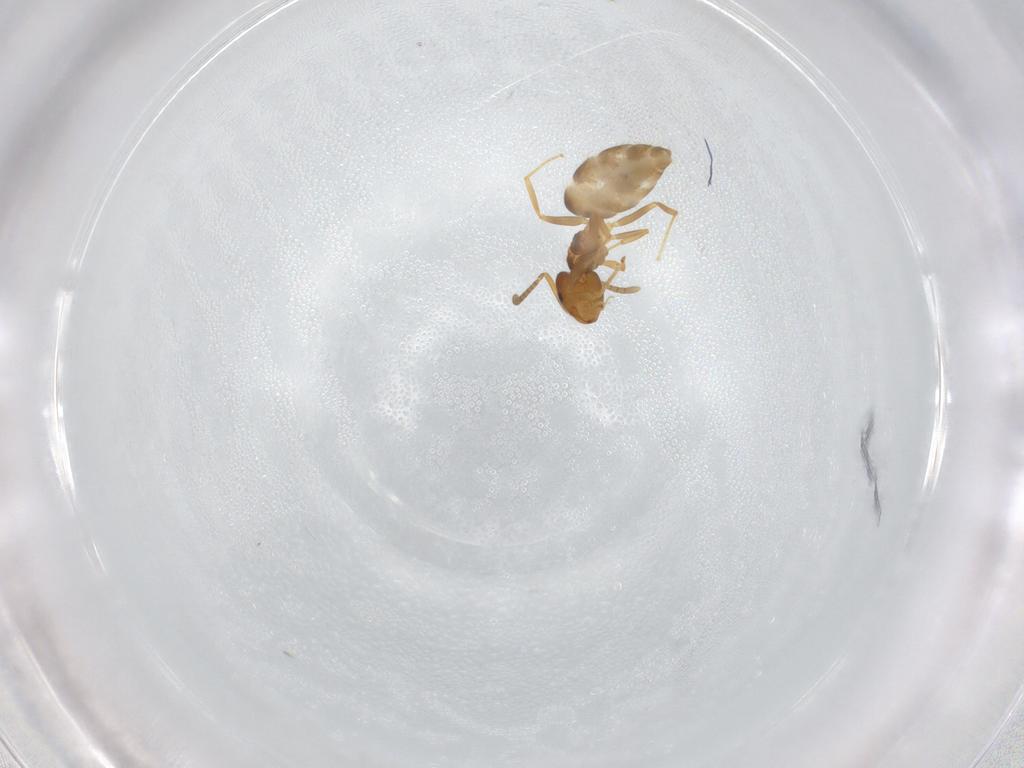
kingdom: Animalia
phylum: Arthropoda
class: Insecta
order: Hymenoptera
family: Formicidae
